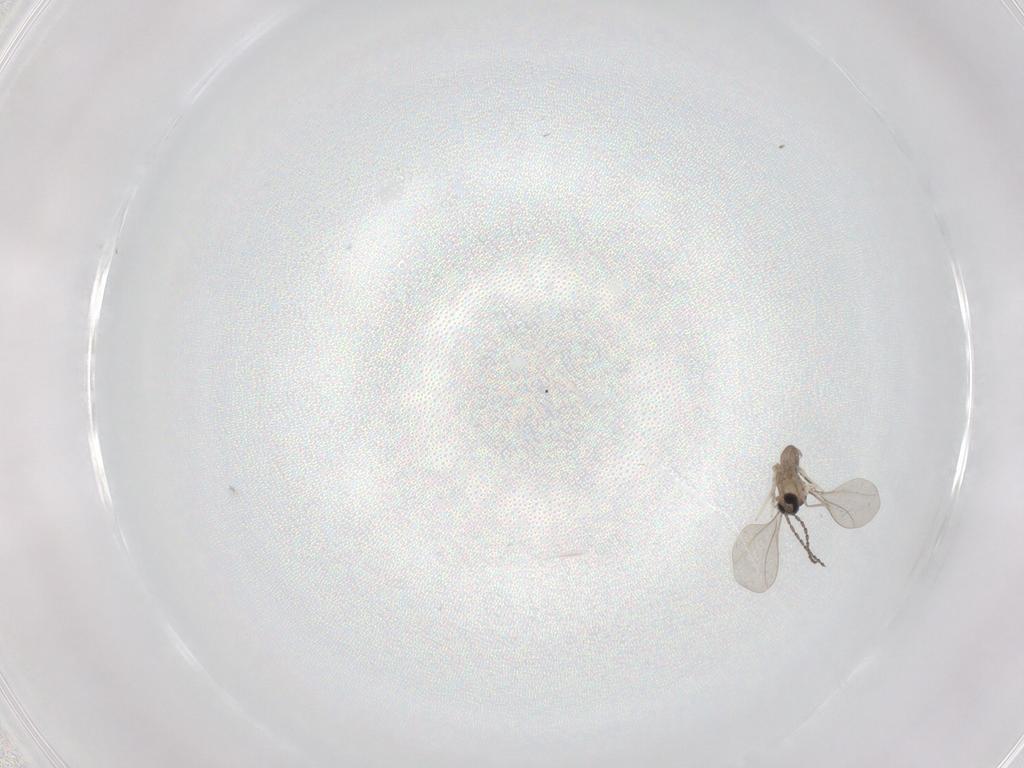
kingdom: Animalia
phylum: Arthropoda
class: Insecta
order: Diptera
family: Cecidomyiidae
